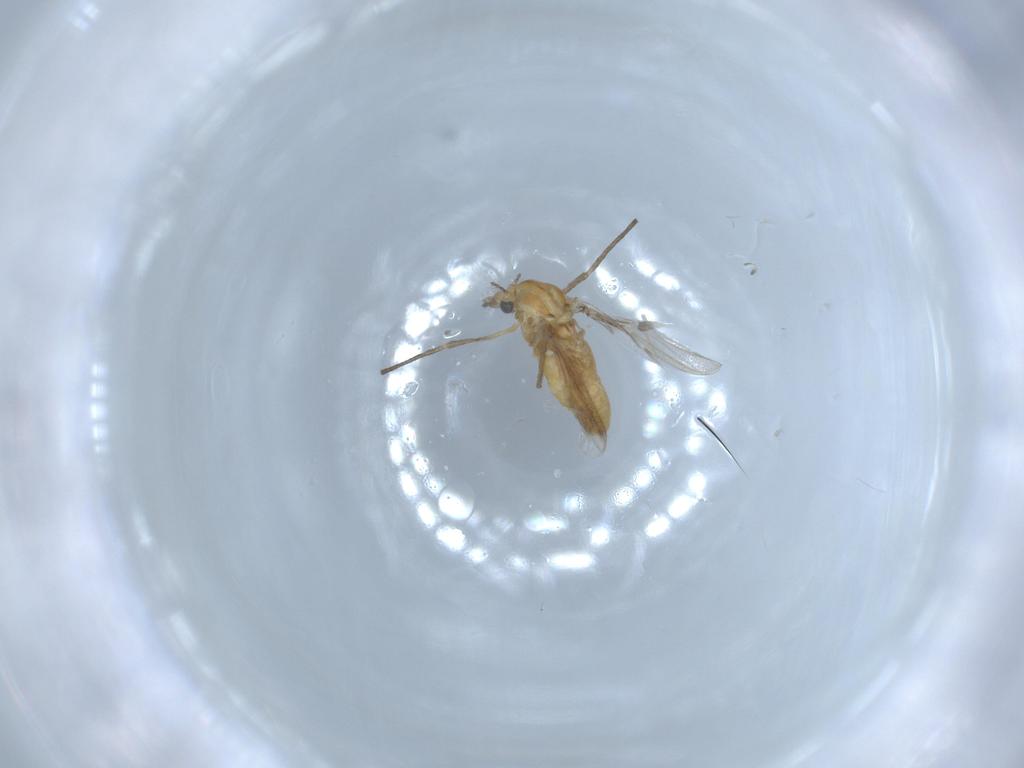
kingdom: Animalia
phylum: Arthropoda
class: Insecta
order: Diptera
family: Chironomidae
